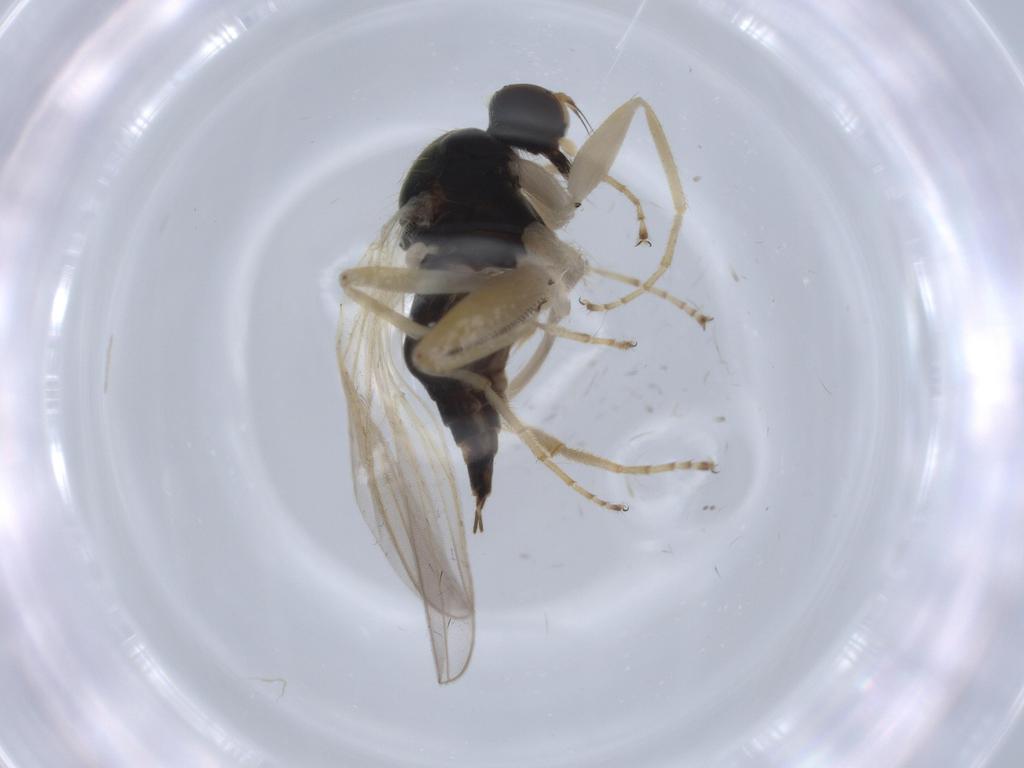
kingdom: Animalia
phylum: Arthropoda
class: Insecta
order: Diptera
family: Hybotidae
